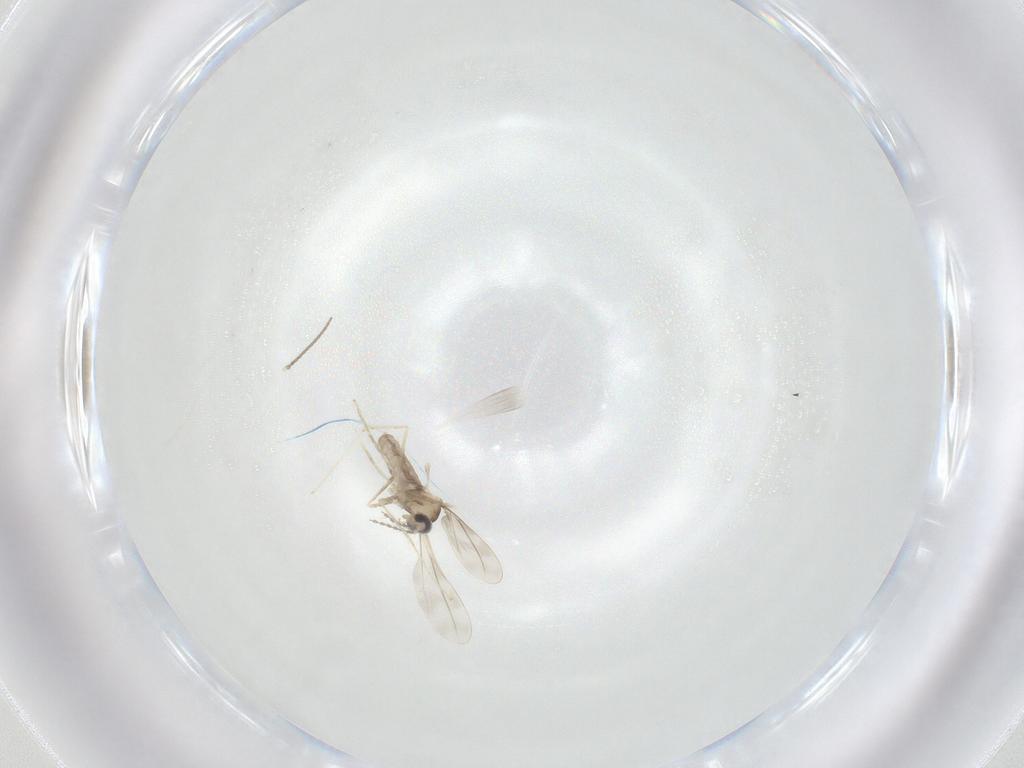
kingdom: Animalia
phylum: Arthropoda
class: Insecta
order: Diptera
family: Cecidomyiidae
